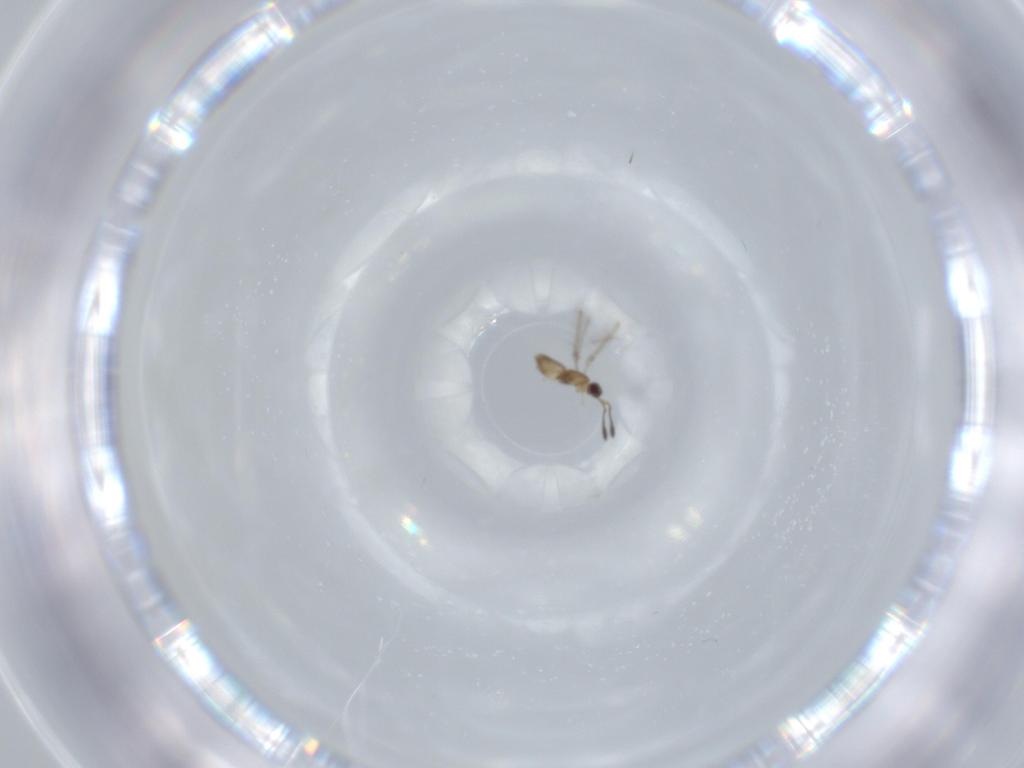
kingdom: Animalia
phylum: Arthropoda
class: Insecta
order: Hymenoptera
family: Mymaridae
